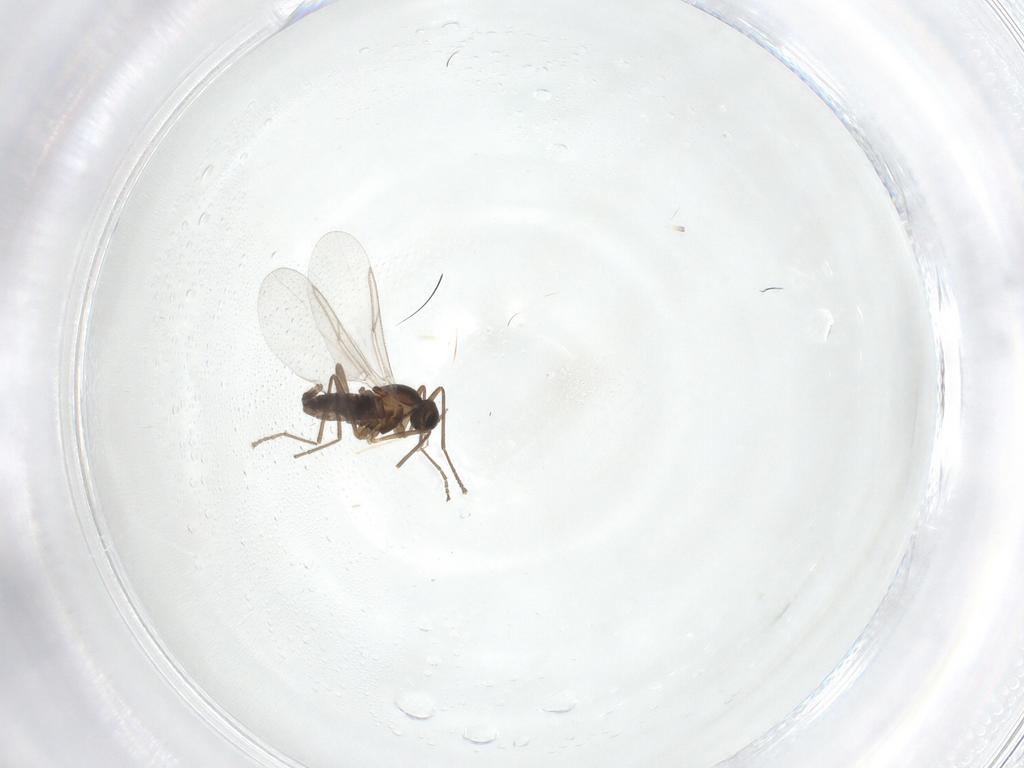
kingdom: Animalia
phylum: Arthropoda
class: Insecta
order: Diptera
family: Cecidomyiidae
